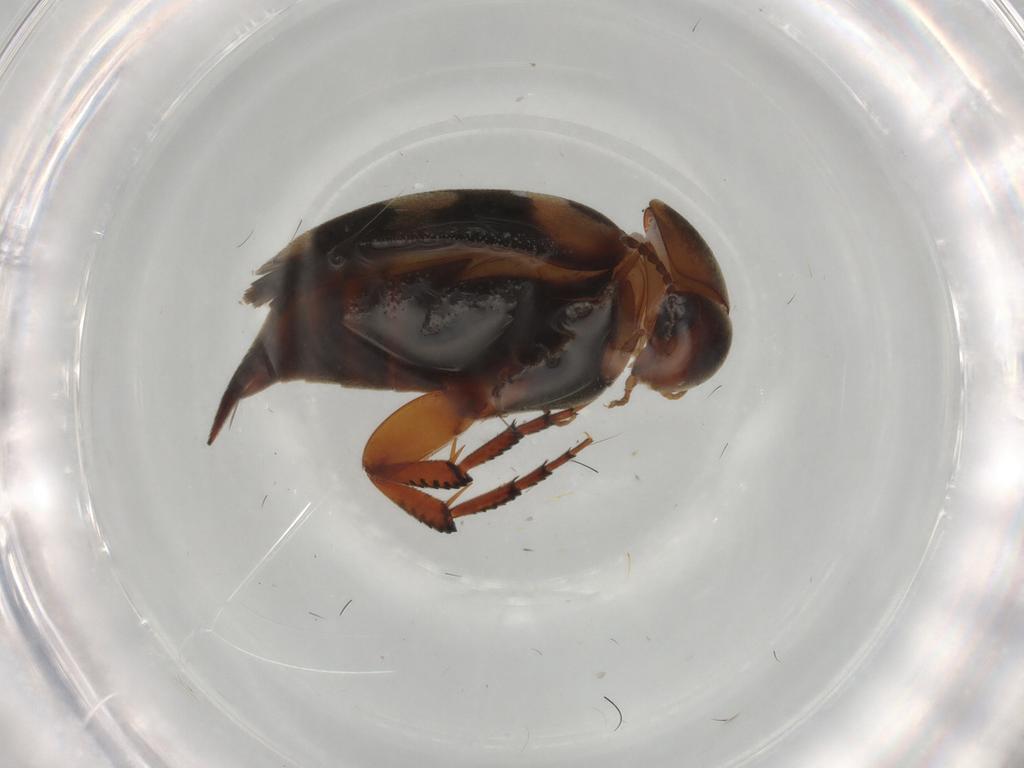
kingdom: Animalia
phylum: Arthropoda
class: Insecta
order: Coleoptera
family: Mordellidae
